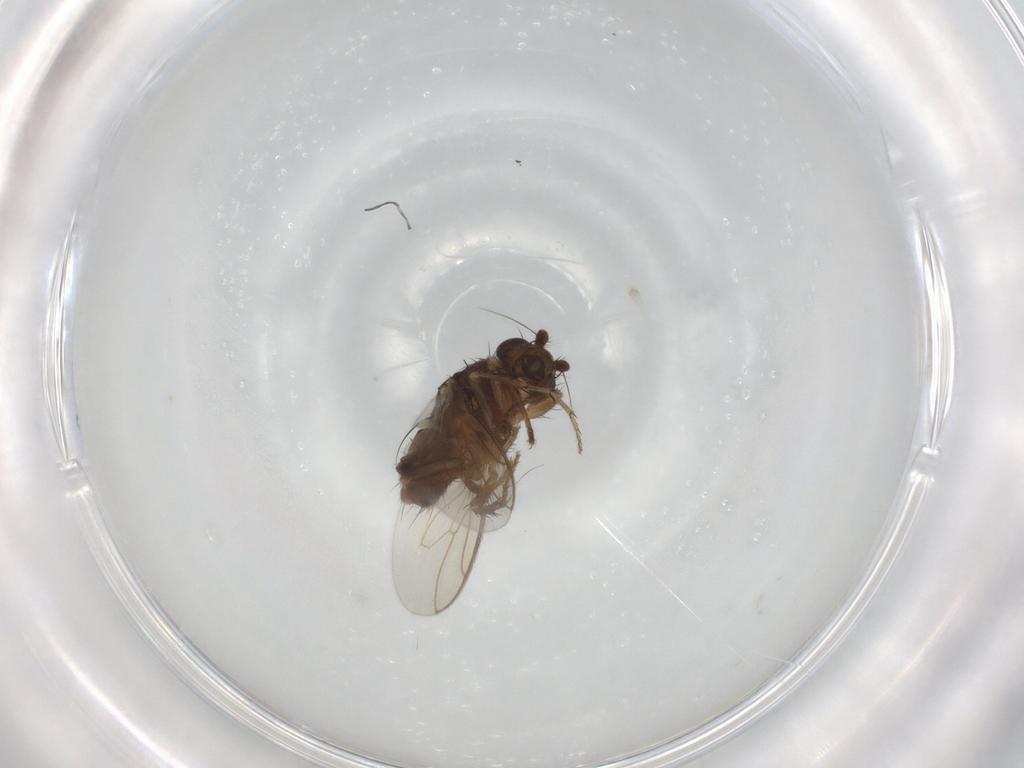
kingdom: Animalia
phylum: Arthropoda
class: Insecta
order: Diptera
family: Sphaeroceridae
